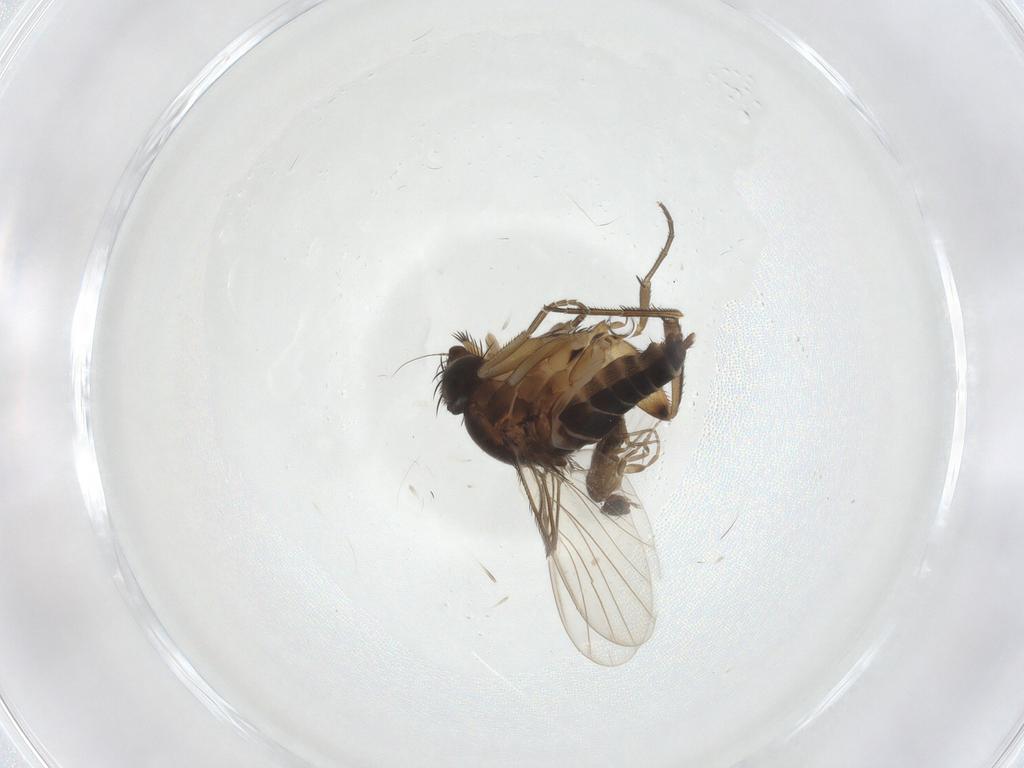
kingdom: Animalia
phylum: Arthropoda
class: Insecta
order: Diptera
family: Phoridae
